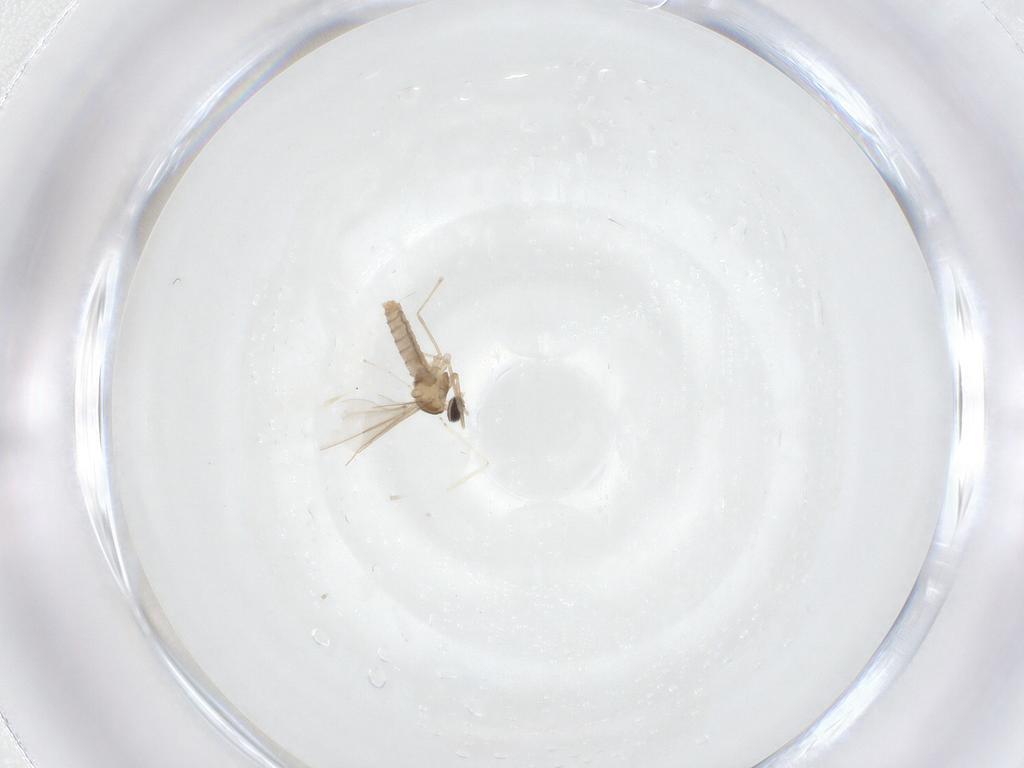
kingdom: Animalia
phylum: Arthropoda
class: Insecta
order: Diptera
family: Cecidomyiidae
